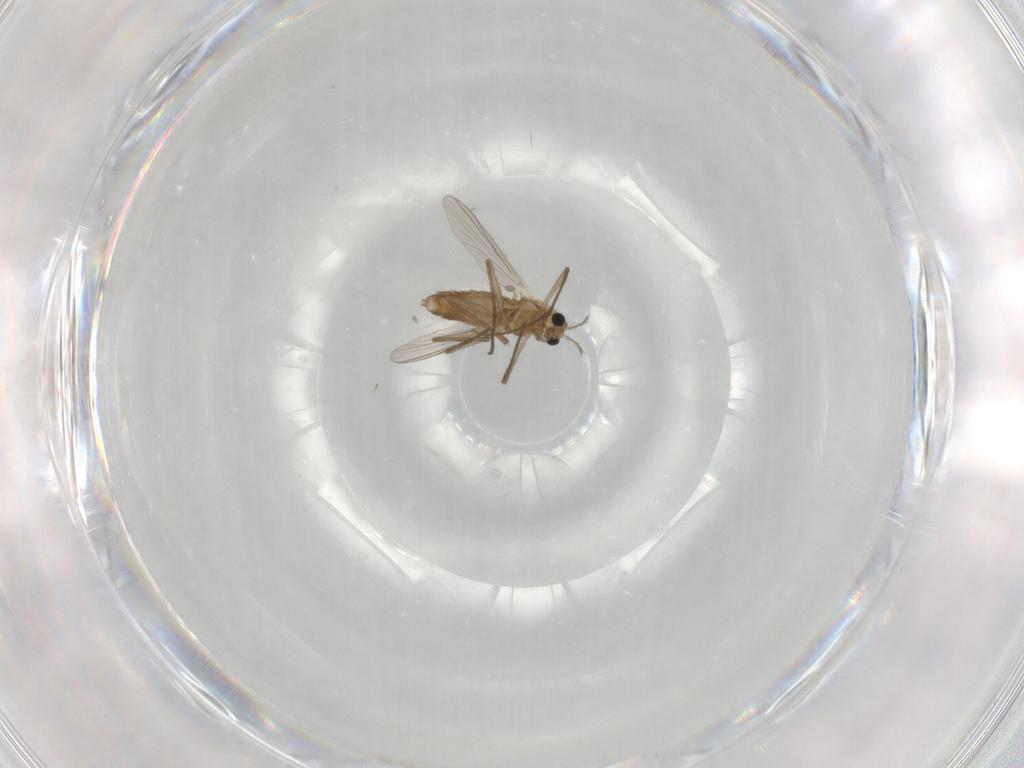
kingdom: Animalia
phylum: Arthropoda
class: Insecta
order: Diptera
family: Chironomidae
